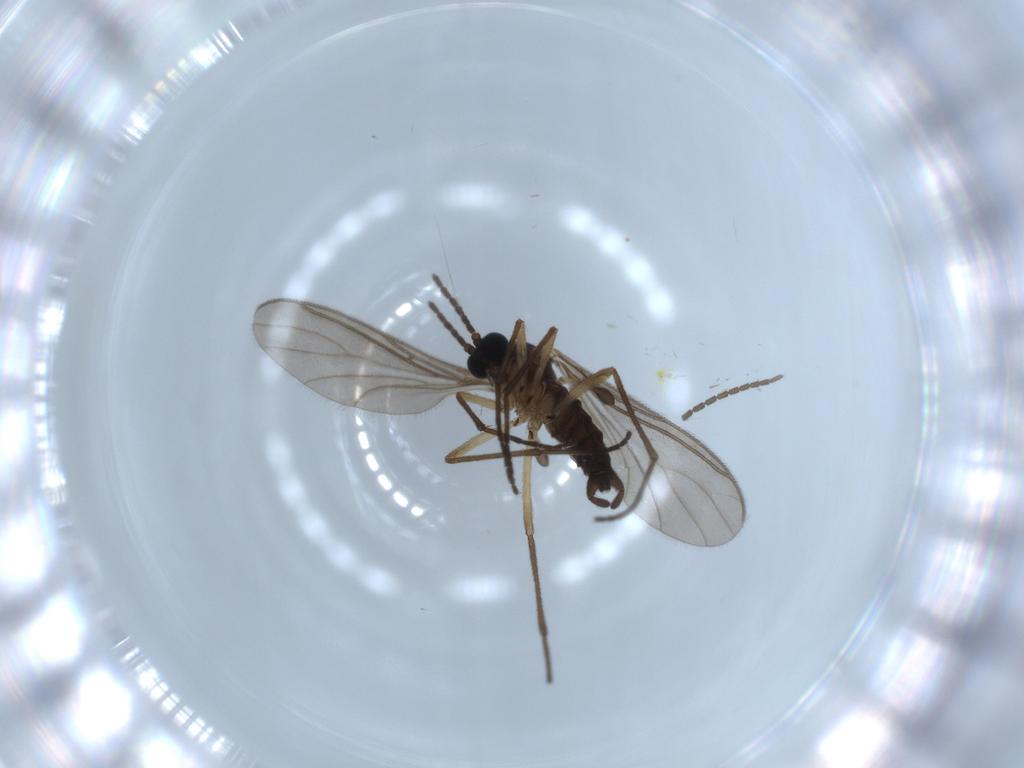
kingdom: Animalia
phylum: Arthropoda
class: Insecta
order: Diptera
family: Sciaridae
